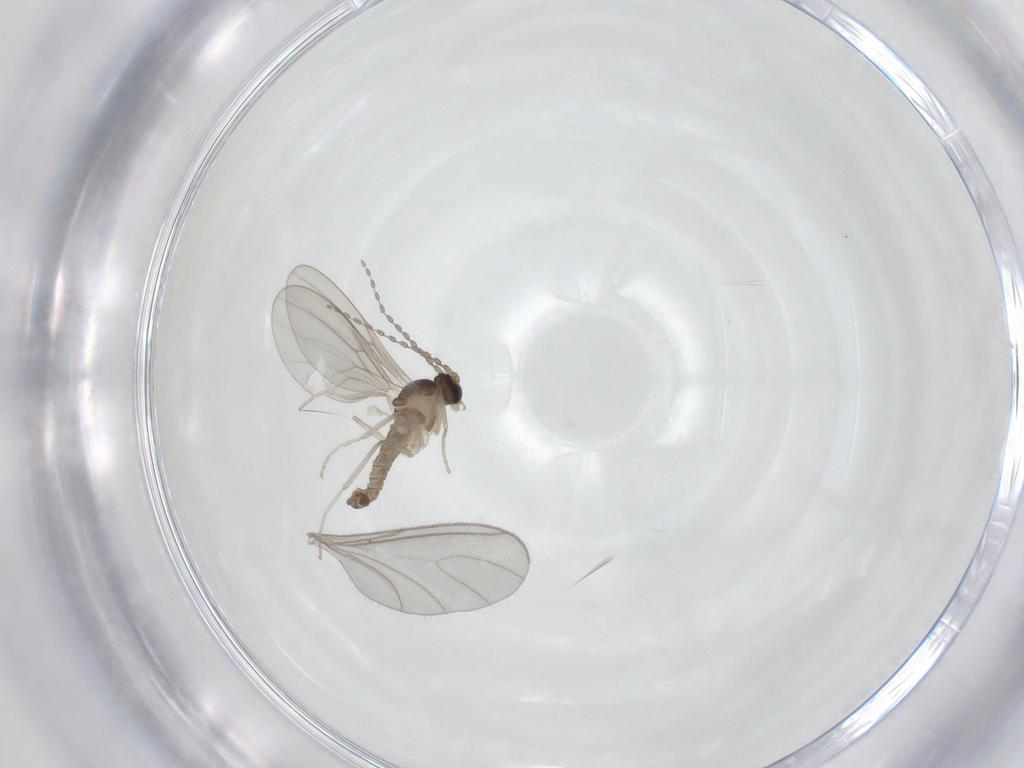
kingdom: Animalia
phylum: Arthropoda
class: Insecta
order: Diptera
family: Cecidomyiidae
